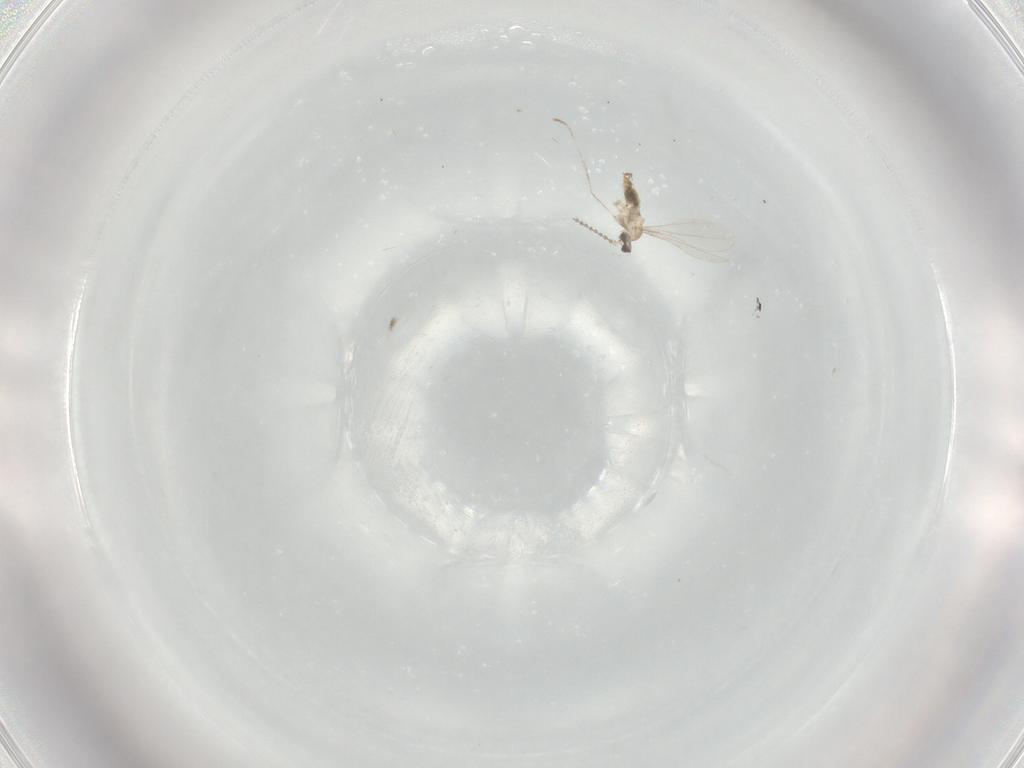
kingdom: Animalia
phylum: Arthropoda
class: Insecta
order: Diptera
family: Cecidomyiidae
